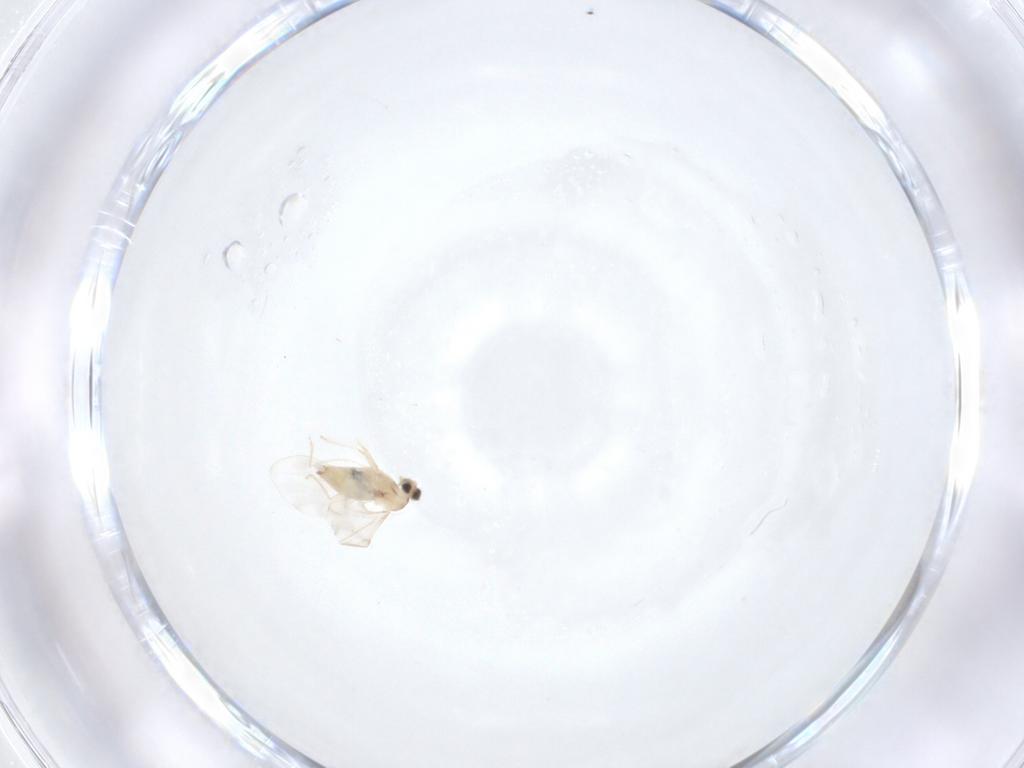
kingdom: Animalia
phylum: Arthropoda
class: Insecta
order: Diptera
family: Cecidomyiidae
